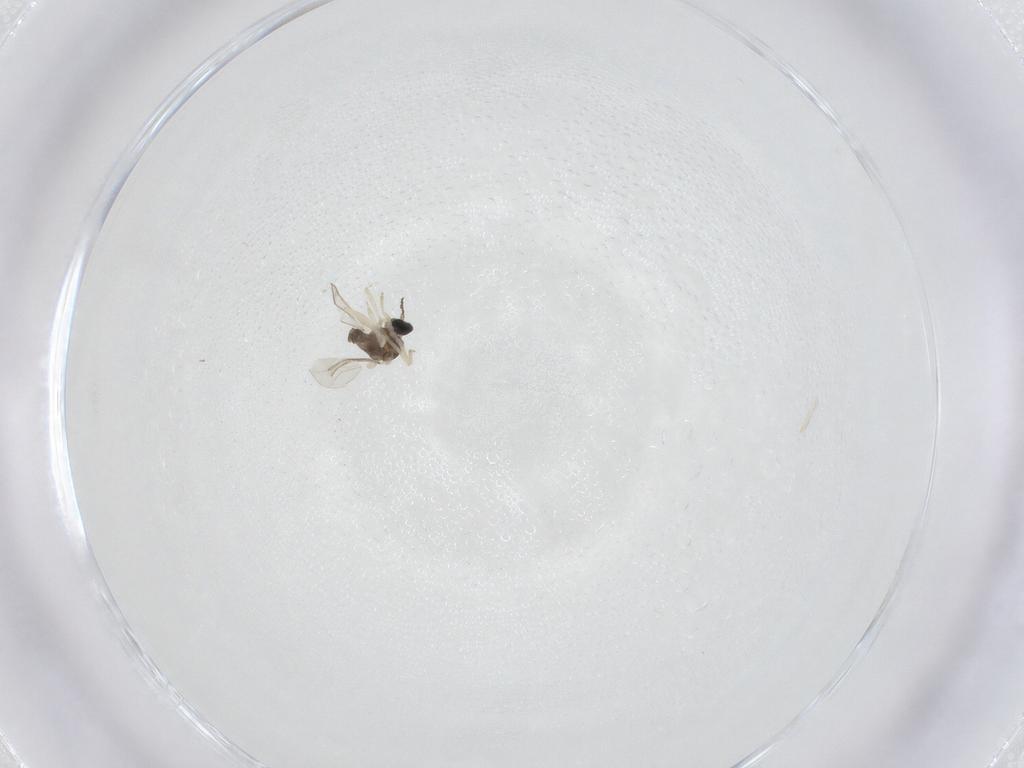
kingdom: Animalia
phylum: Arthropoda
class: Insecta
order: Diptera
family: Cecidomyiidae
